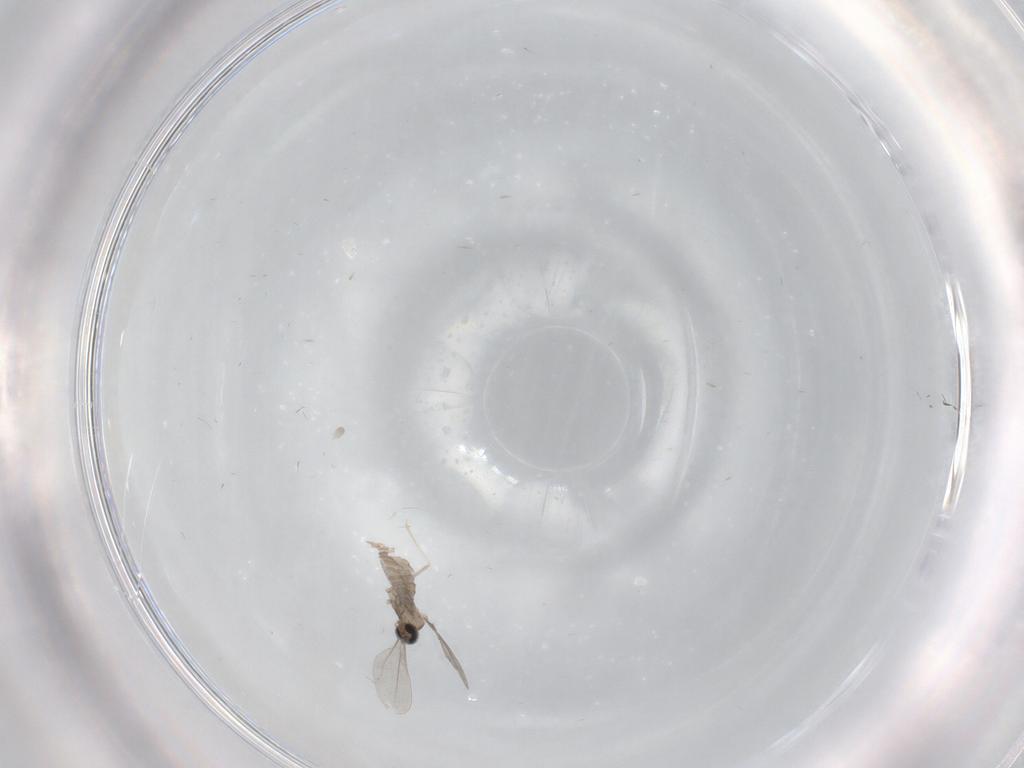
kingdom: Animalia
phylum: Arthropoda
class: Insecta
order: Diptera
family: Cecidomyiidae
